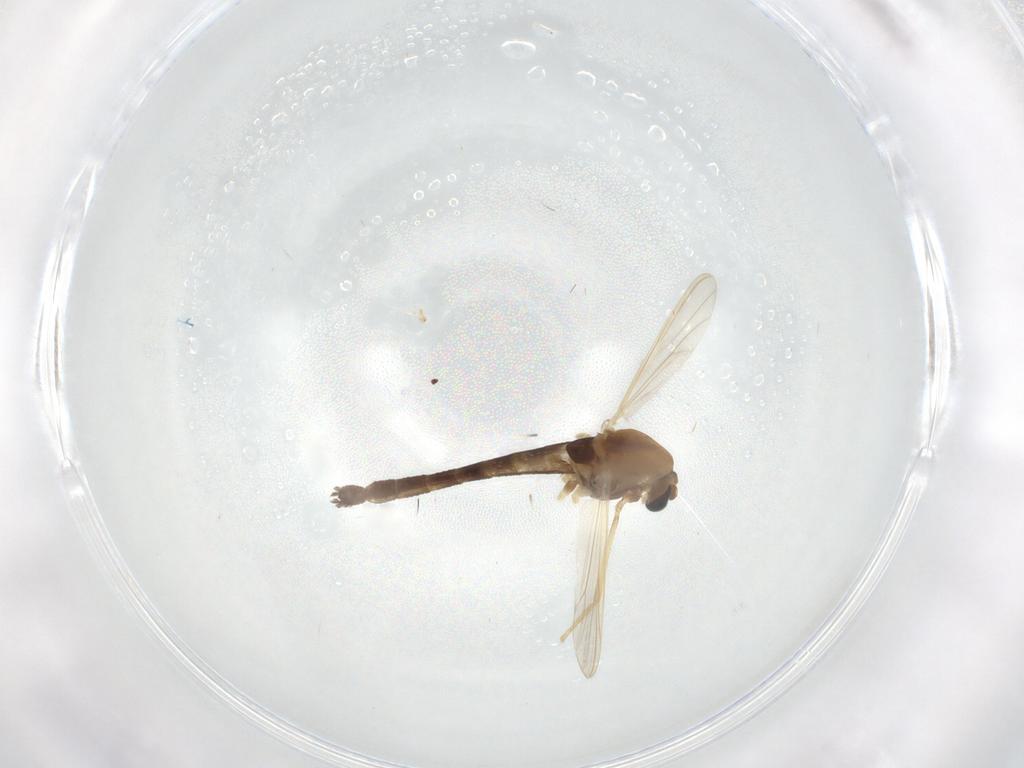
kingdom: Animalia
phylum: Arthropoda
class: Insecta
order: Diptera
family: Chironomidae
